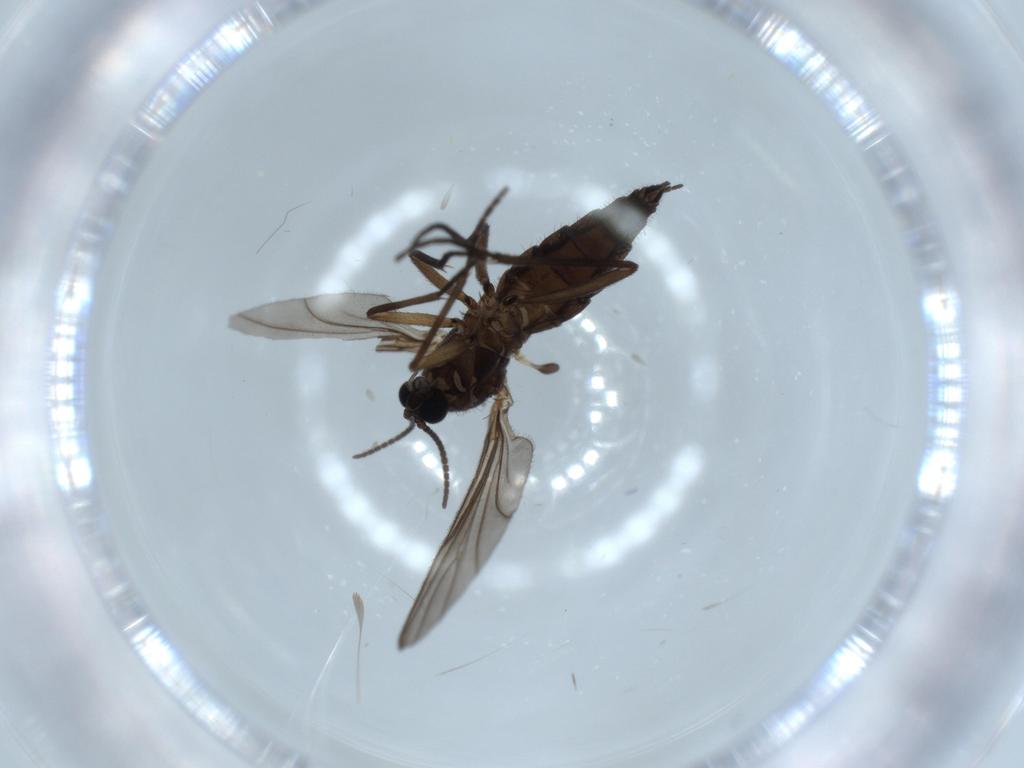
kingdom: Animalia
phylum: Arthropoda
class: Insecta
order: Diptera
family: Sciaridae
